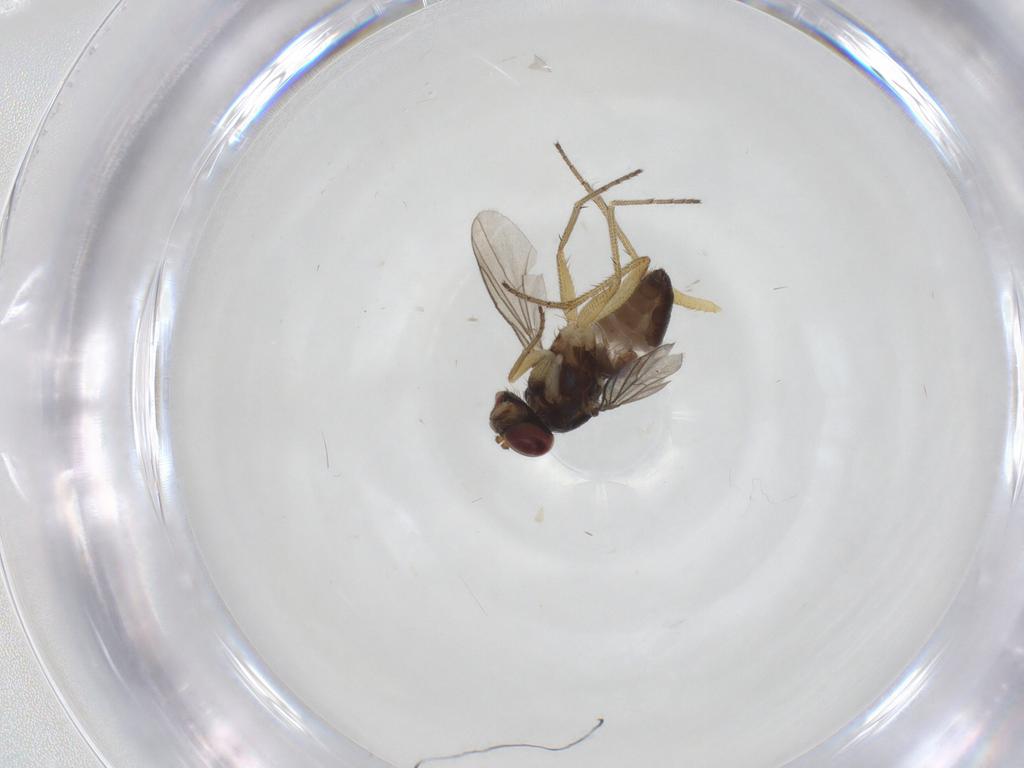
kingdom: Animalia
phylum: Arthropoda
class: Insecta
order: Diptera
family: Dolichopodidae
